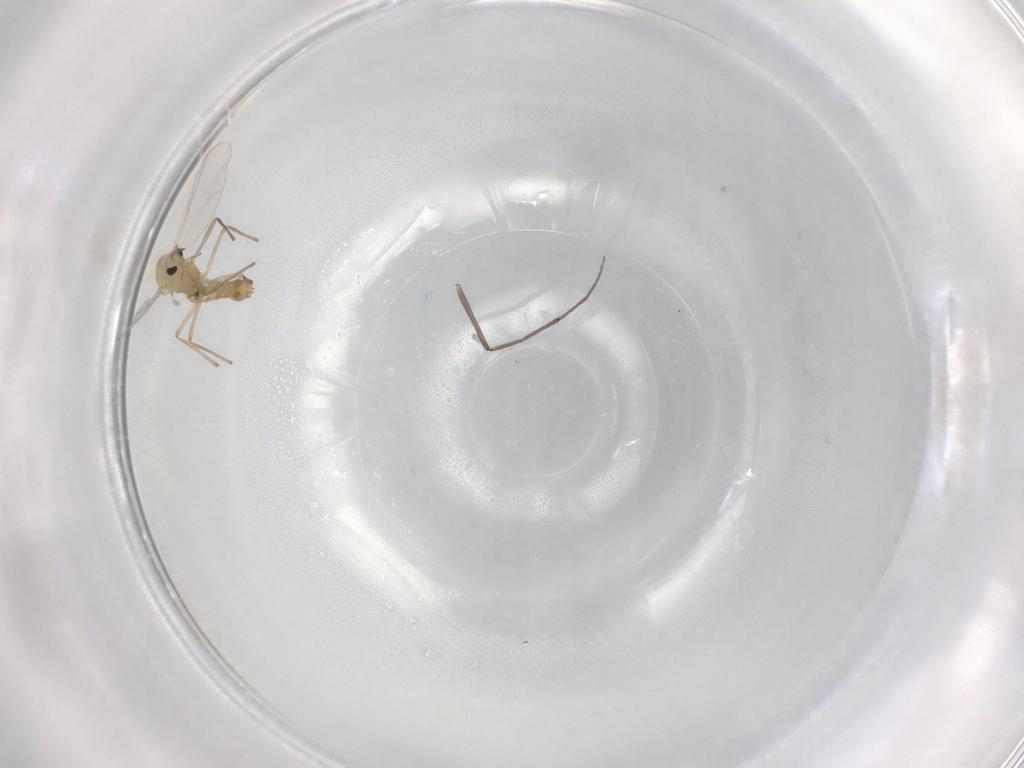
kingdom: Animalia
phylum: Arthropoda
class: Insecta
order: Diptera
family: Chironomidae
